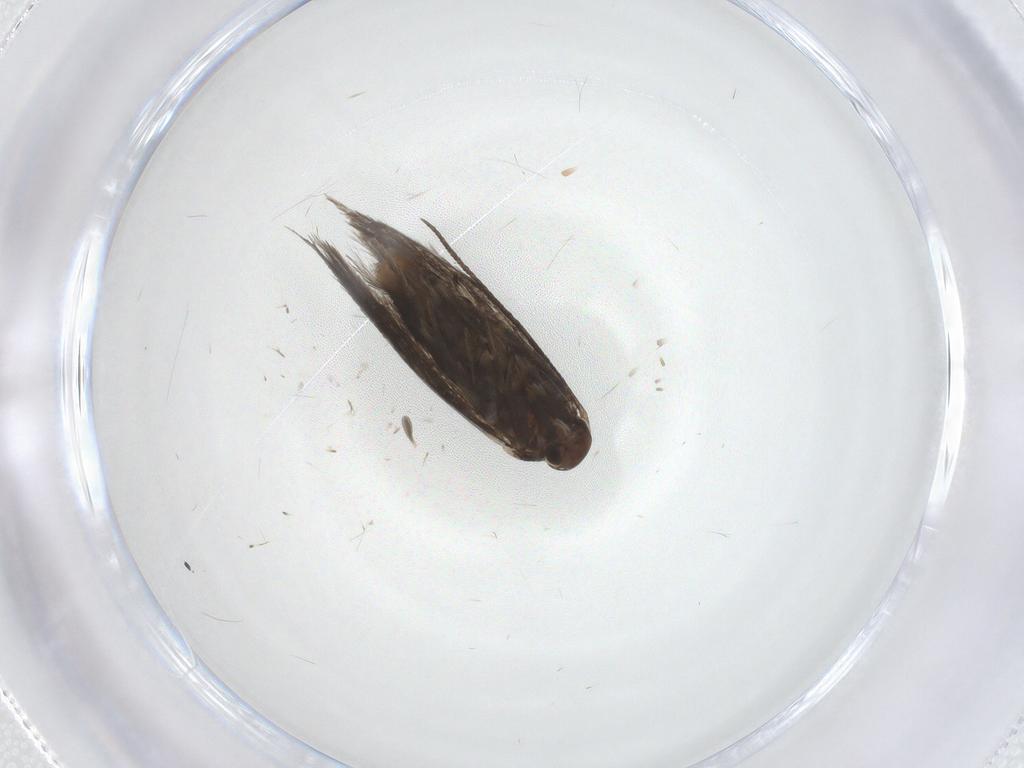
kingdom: Animalia
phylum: Arthropoda
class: Insecta
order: Lepidoptera
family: Elachistidae
